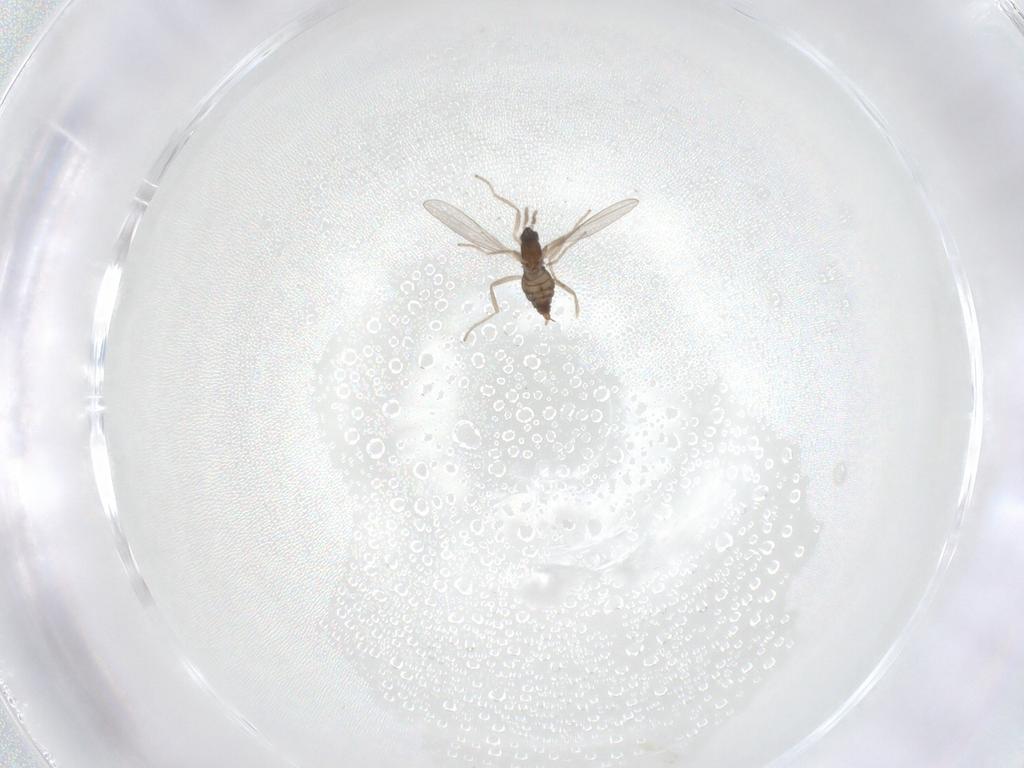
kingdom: Animalia
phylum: Arthropoda
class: Insecta
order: Diptera
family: Cecidomyiidae
